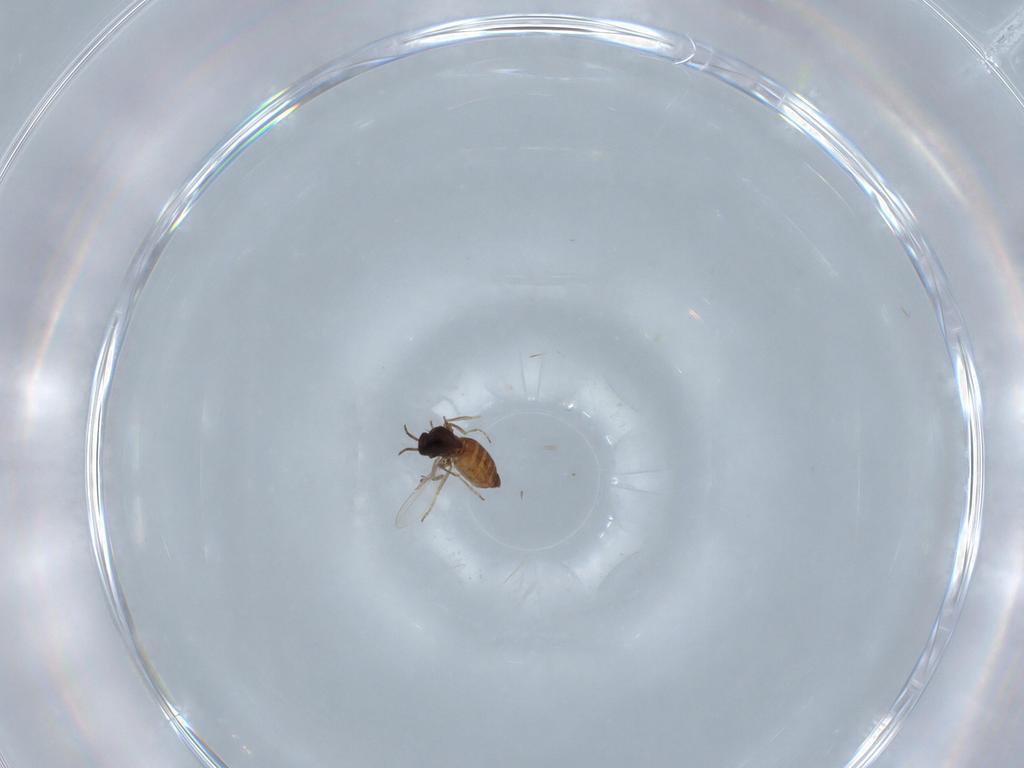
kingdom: Animalia
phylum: Arthropoda
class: Insecta
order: Diptera
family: Ceratopogonidae
